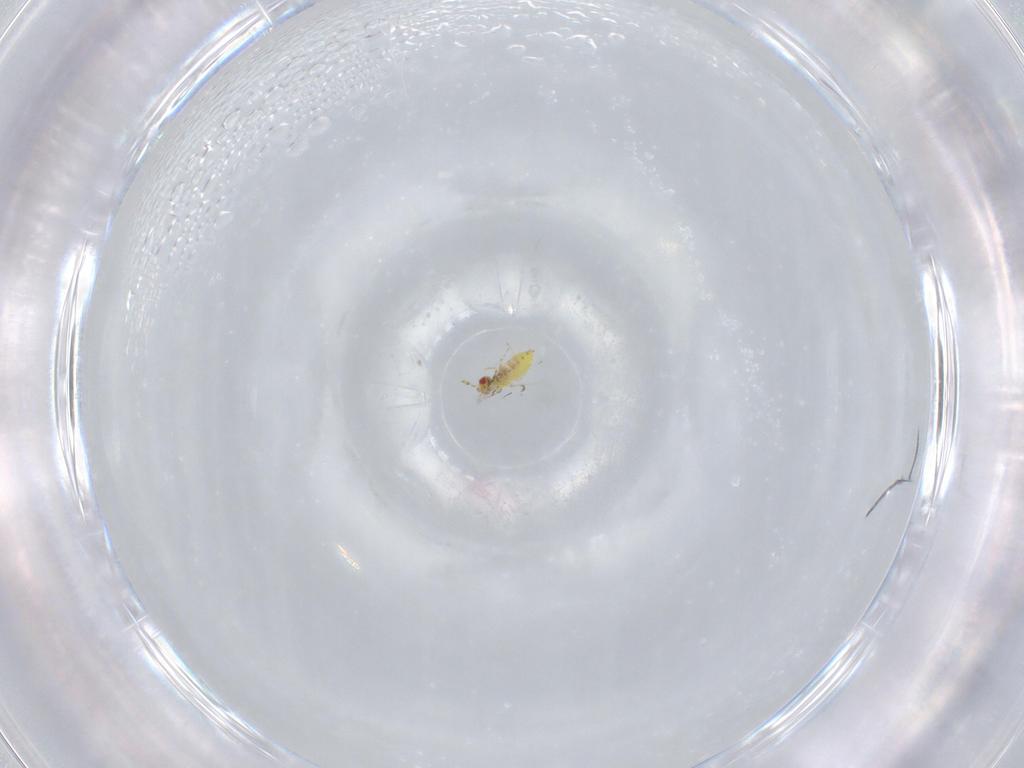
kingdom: Animalia
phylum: Arthropoda
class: Insecta
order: Hymenoptera
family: Trichogrammatidae
